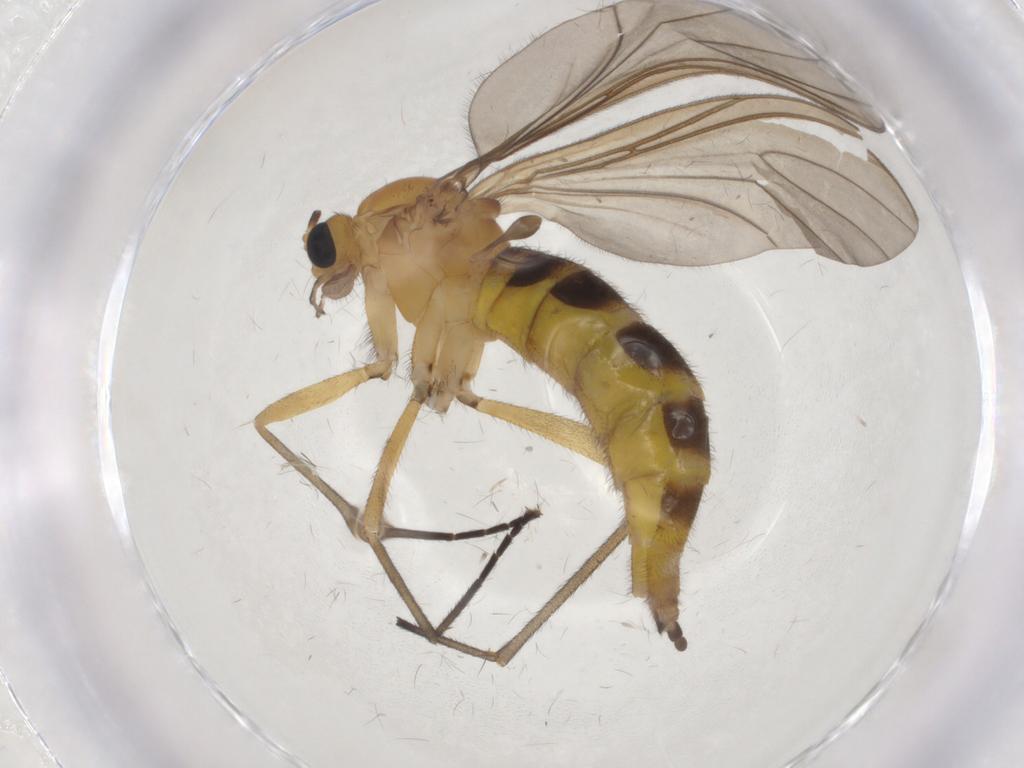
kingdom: Animalia
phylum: Arthropoda
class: Insecta
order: Diptera
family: Sciaridae
